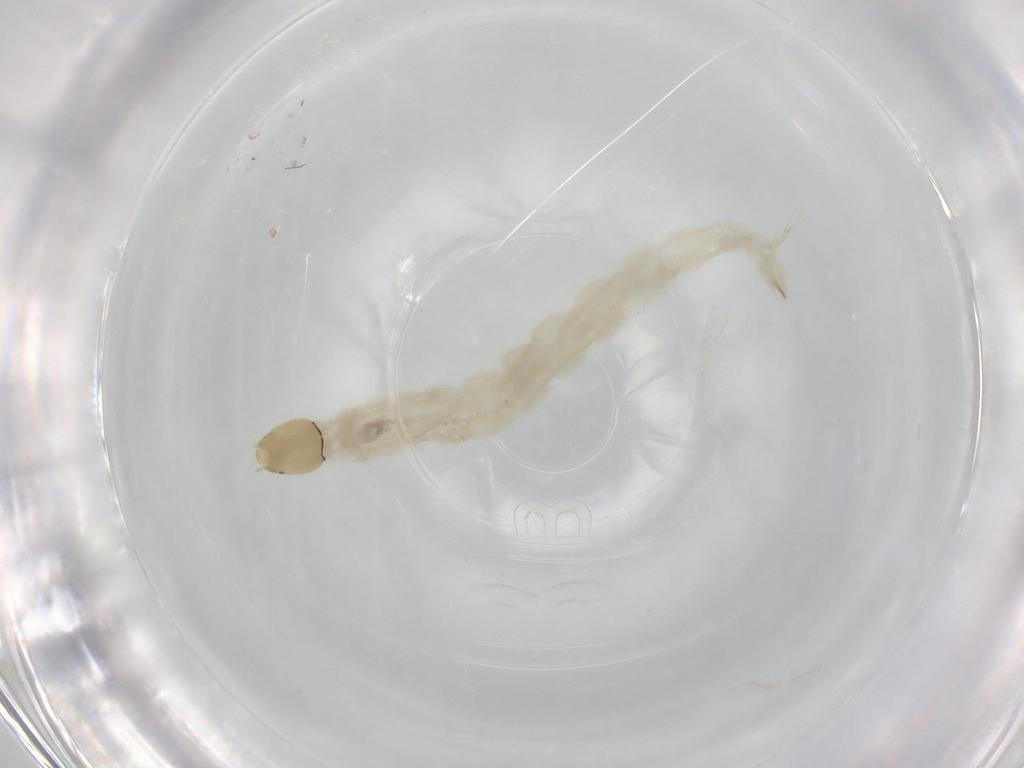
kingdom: Animalia
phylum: Arthropoda
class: Insecta
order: Diptera
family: Chironomidae
